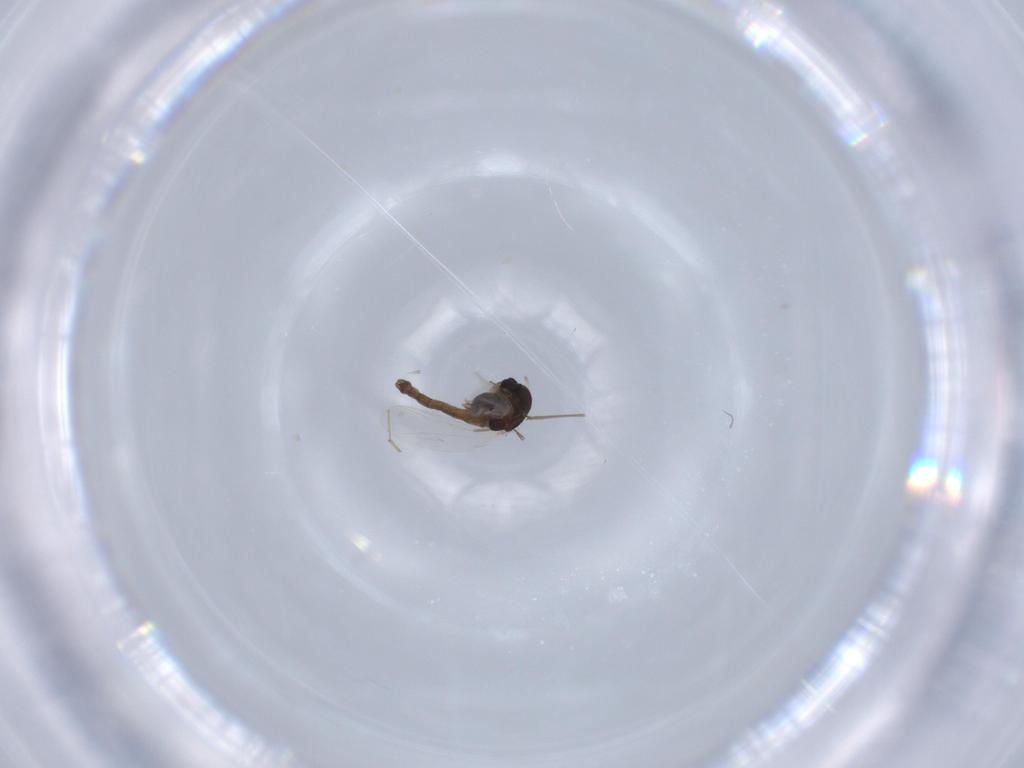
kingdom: Animalia
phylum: Arthropoda
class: Insecta
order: Diptera
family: Chironomidae
